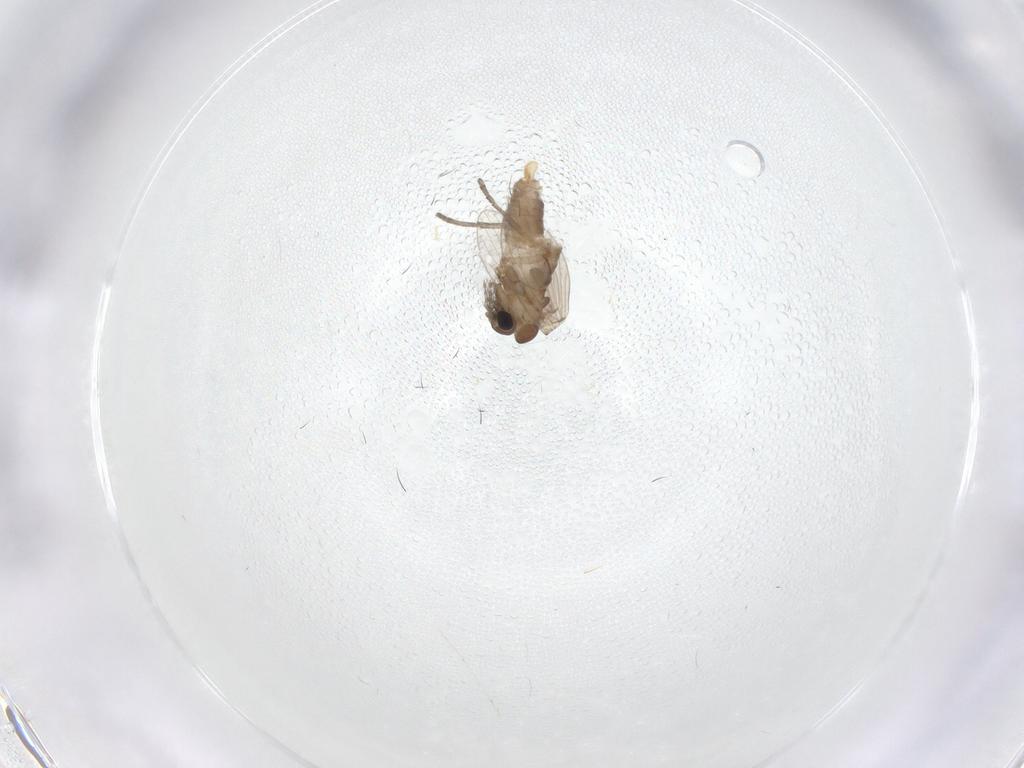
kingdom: Animalia
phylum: Arthropoda
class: Insecta
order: Diptera
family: Psychodidae
